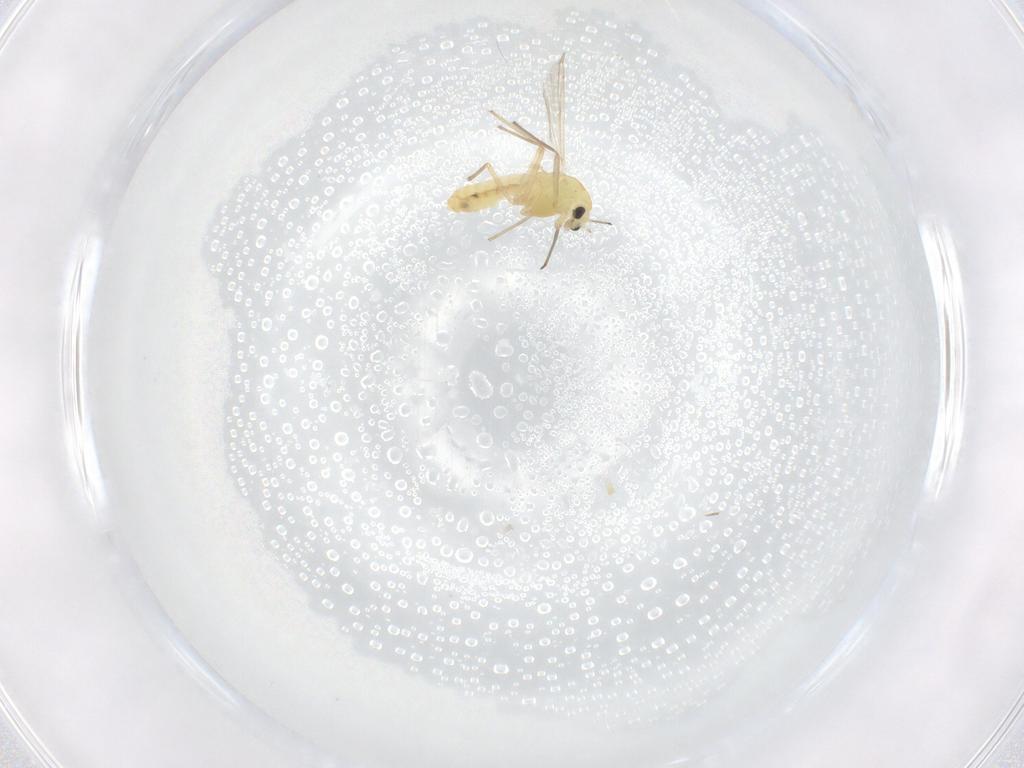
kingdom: Animalia
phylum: Arthropoda
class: Insecta
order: Diptera
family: Chironomidae
